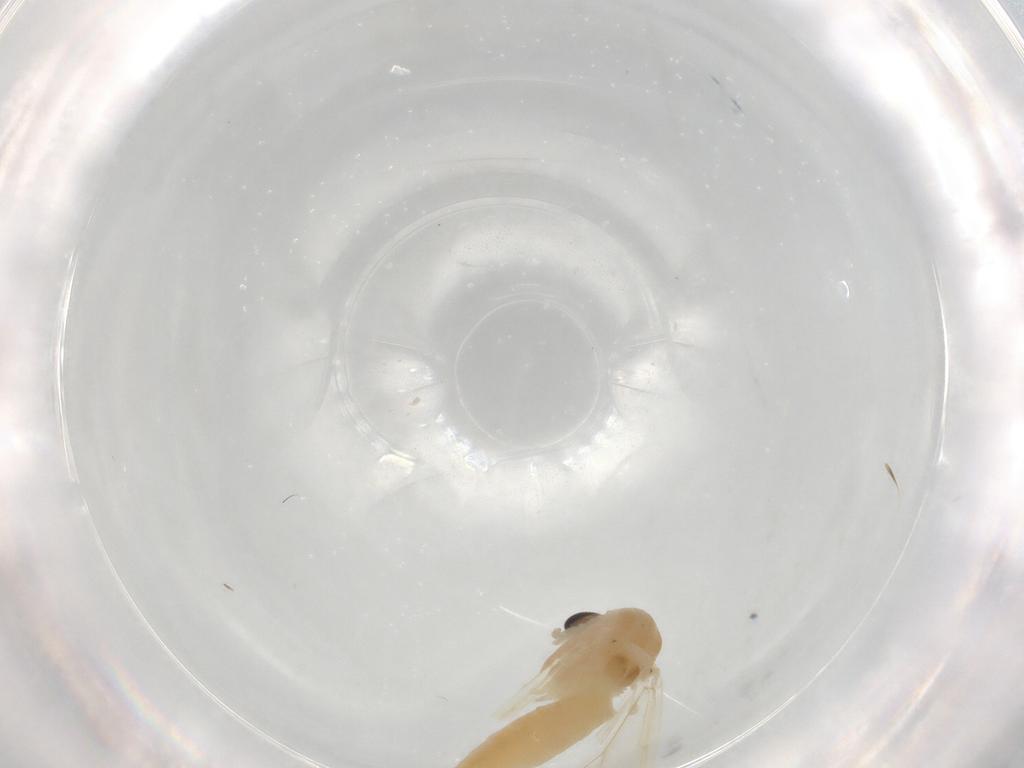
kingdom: Animalia
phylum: Arthropoda
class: Insecta
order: Diptera
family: Chironomidae
